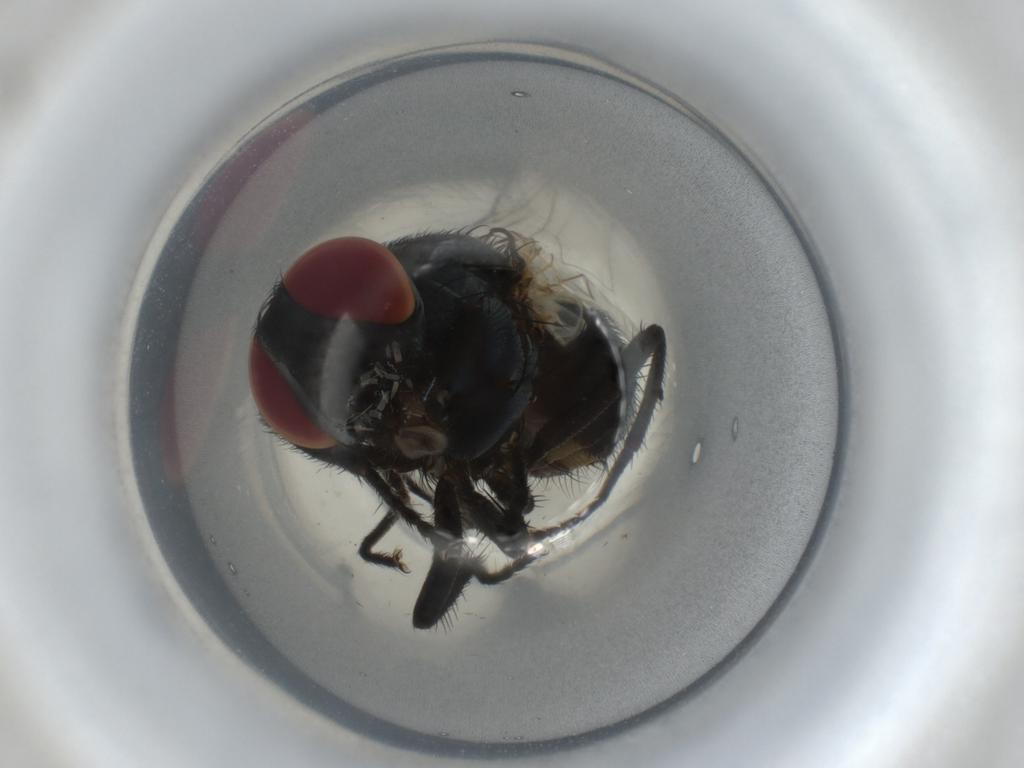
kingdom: Animalia
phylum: Arthropoda
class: Insecta
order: Diptera
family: Muscidae
